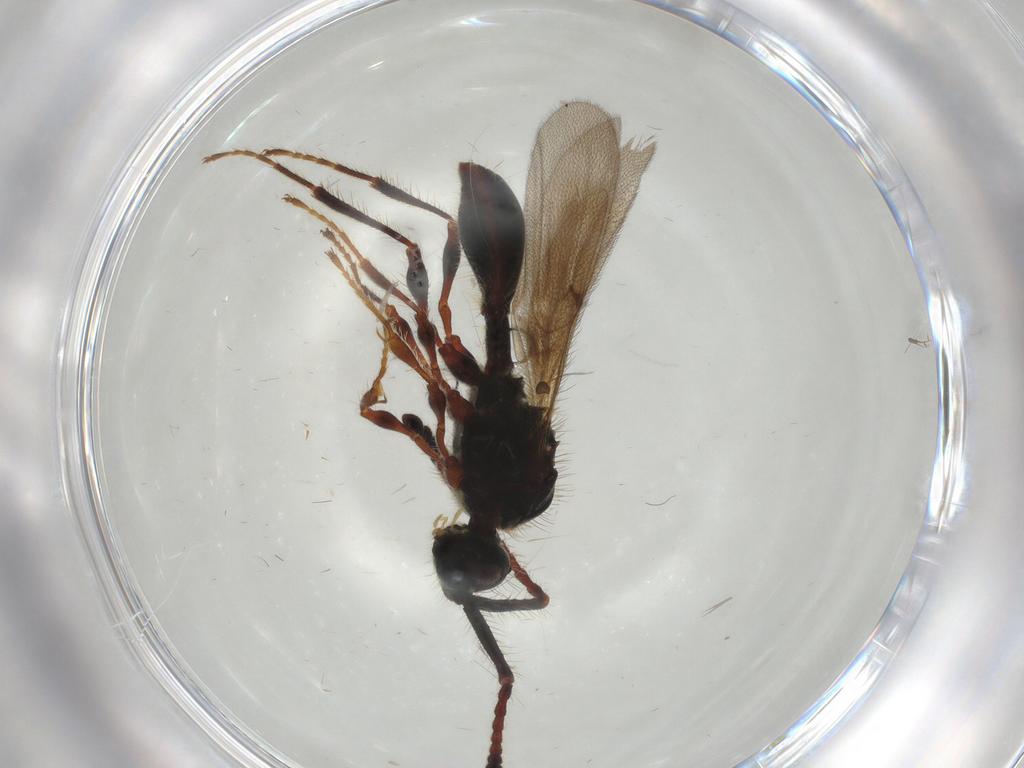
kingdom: Animalia
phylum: Arthropoda
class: Insecta
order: Hymenoptera
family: Diapriidae
